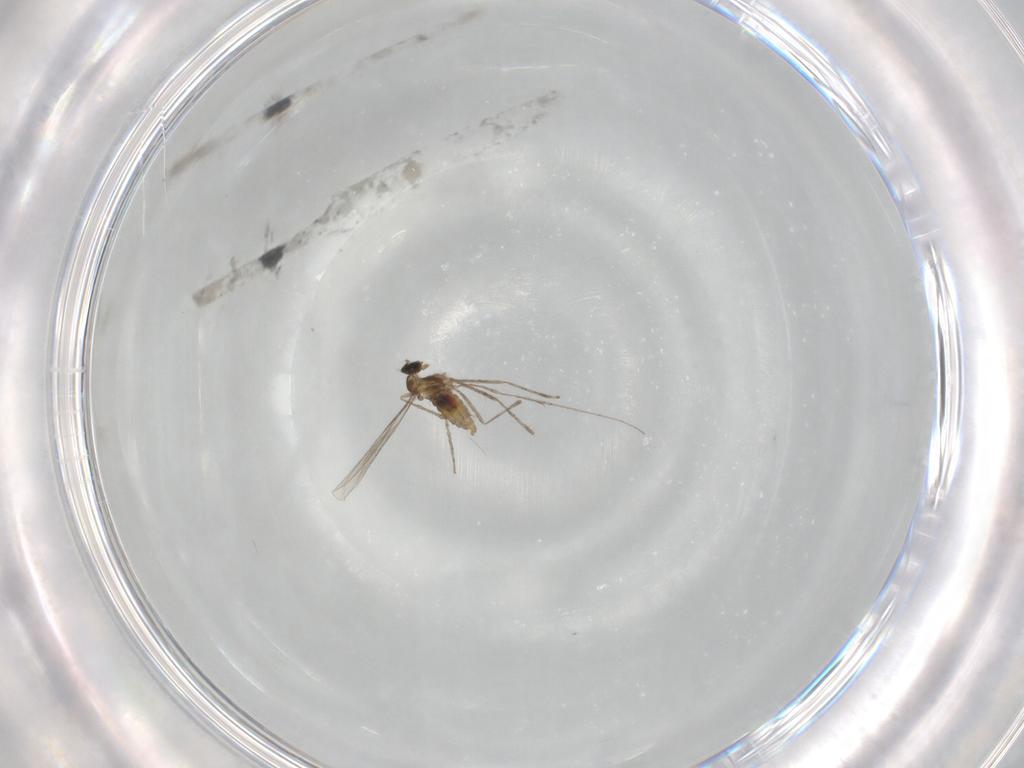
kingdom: Animalia
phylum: Arthropoda
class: Insecta
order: Diptera
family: Cecidomyiidae
